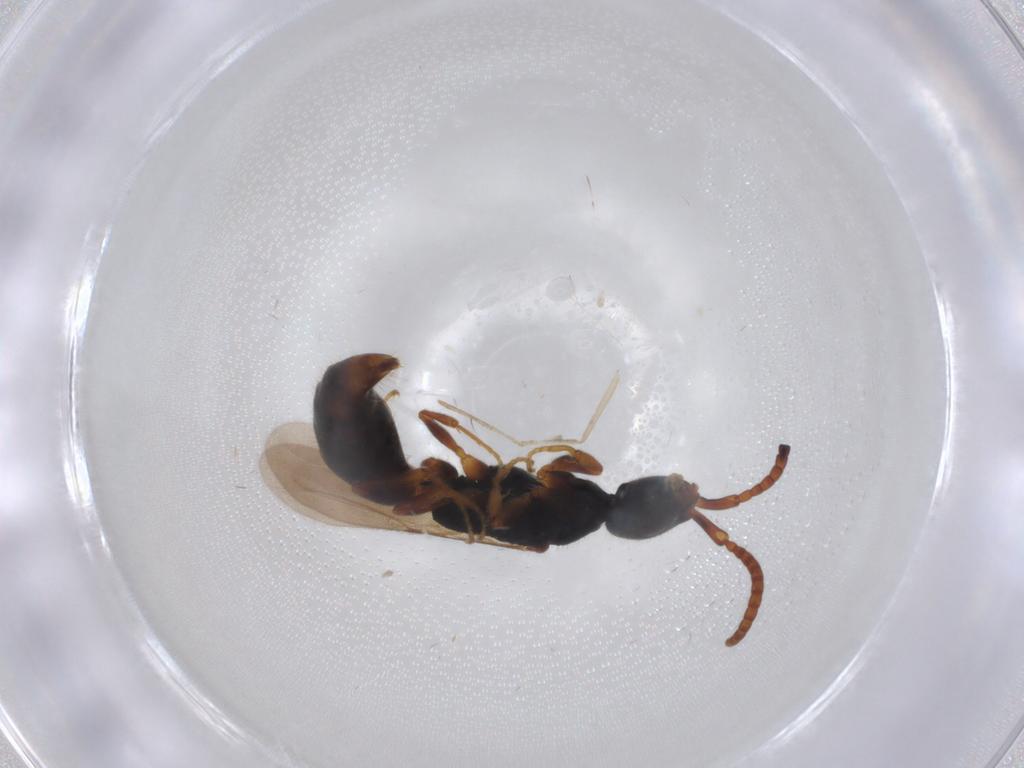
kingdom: Animalia
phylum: Arthropoda
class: Insecta
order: Hymenoptera
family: Bethylidae
